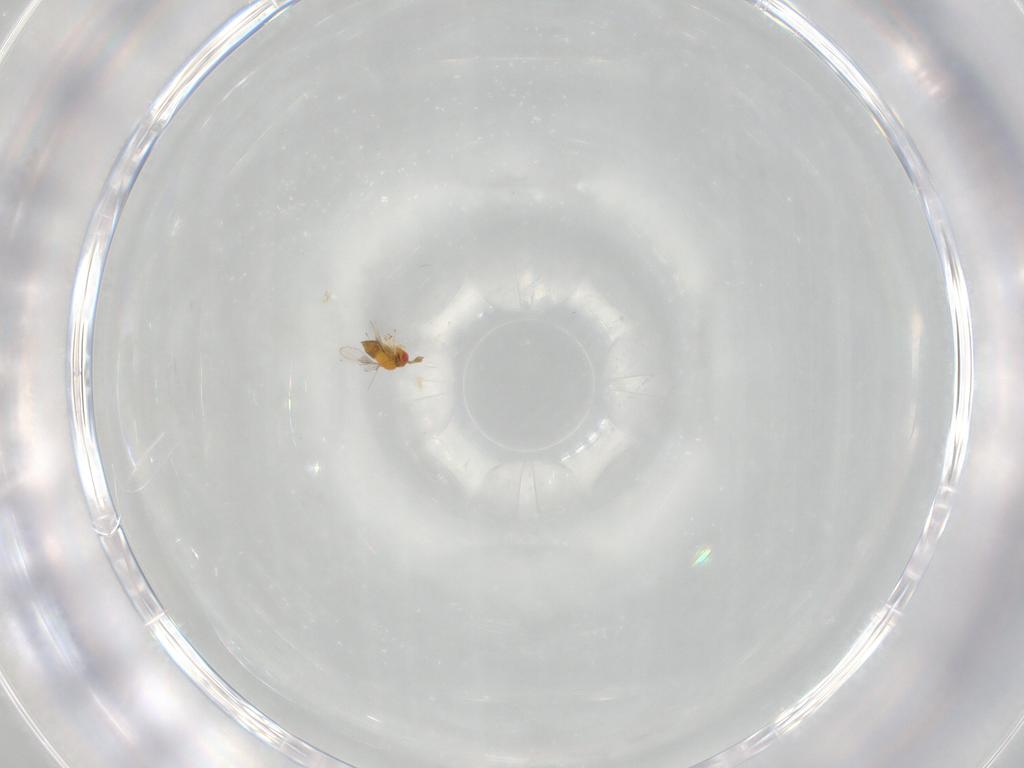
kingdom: Animalia
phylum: Arthropoda
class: Insecta
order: Hymenoptera
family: Trichogrammatidae
